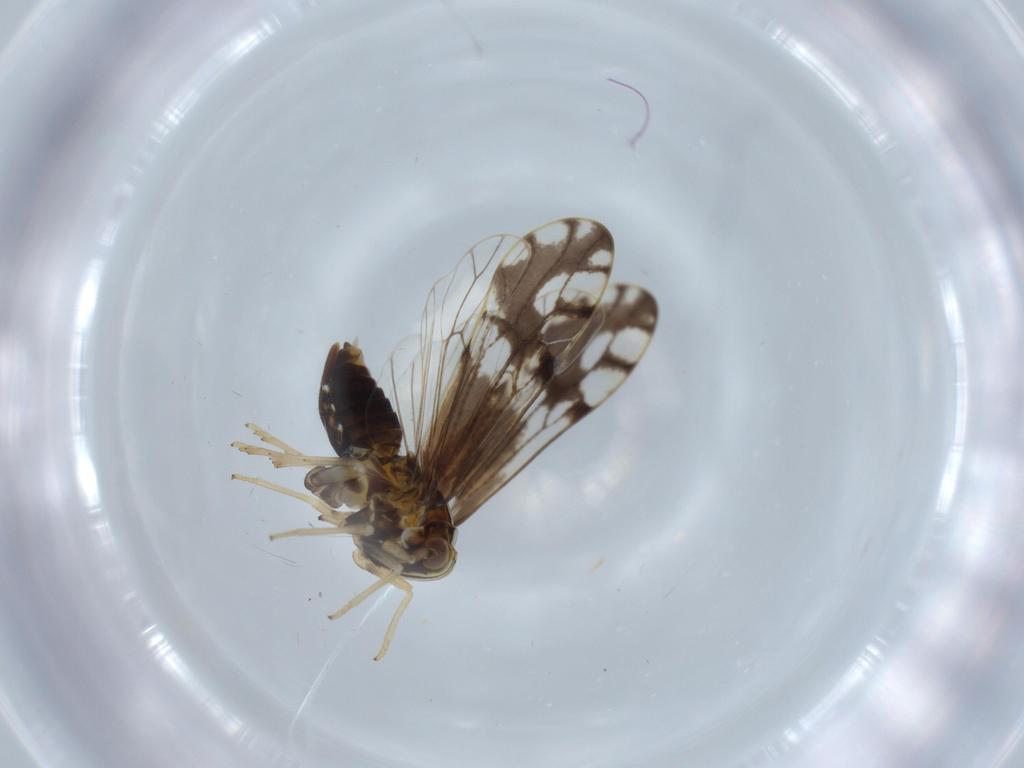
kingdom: Animalia
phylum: Arthropoda
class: Insecta
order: Hemiptera
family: Delphacidae
